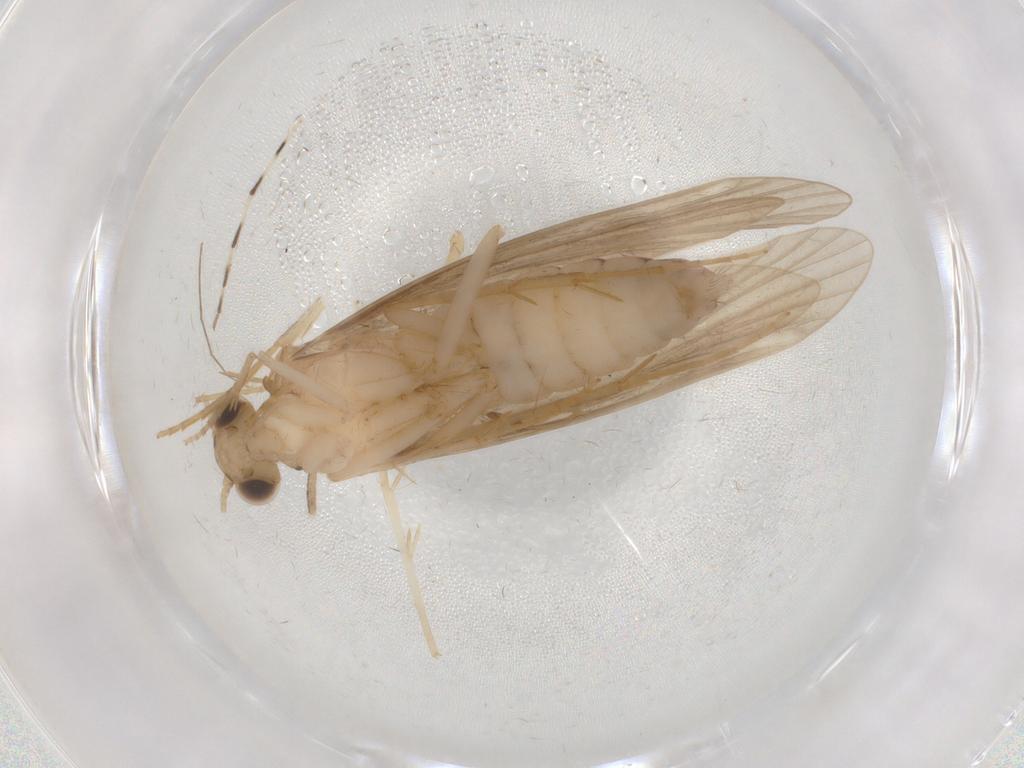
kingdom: Animalia
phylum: Arthropoda
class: Insecta
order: Trichoptera
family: Ecnomidae
